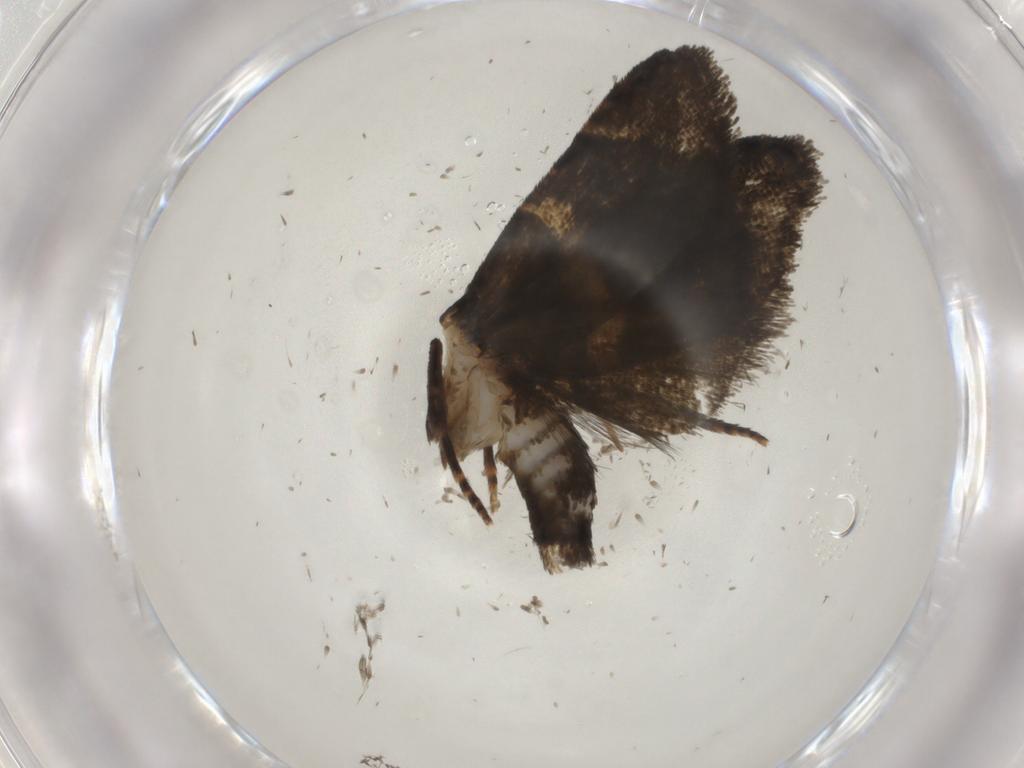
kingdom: Animalia
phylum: Arthropoda
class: Insecta
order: Lepidoptera
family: Tortricidae
